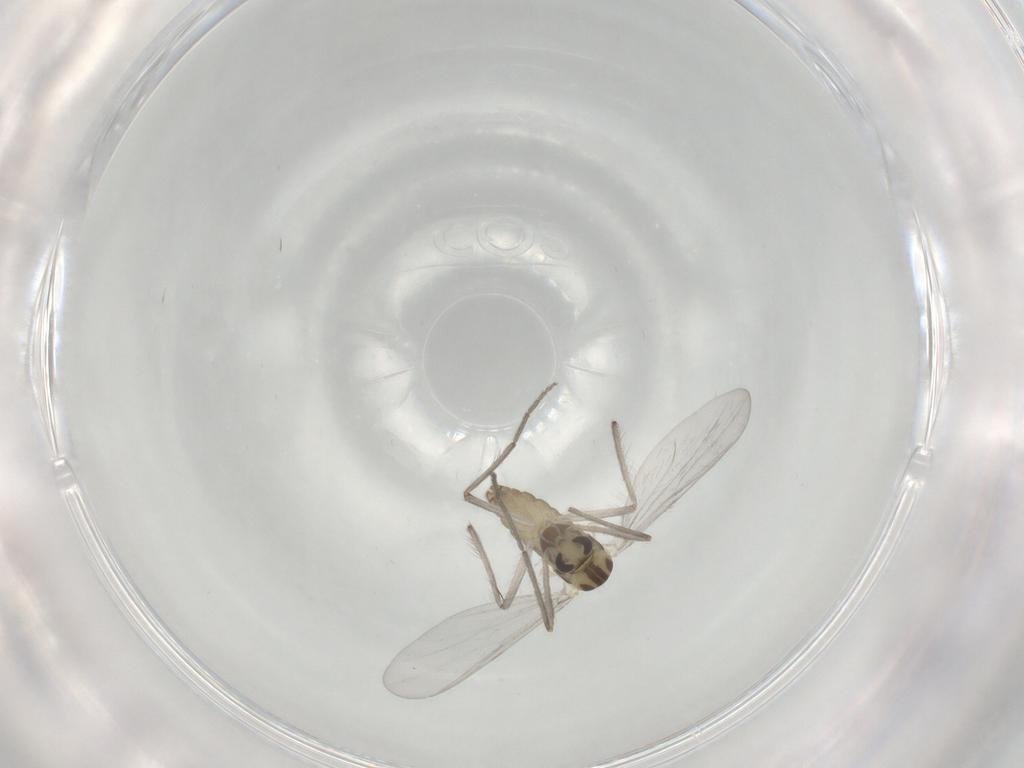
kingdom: Animalia
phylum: Arthropoda
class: Insecta
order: Diptera
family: Chironomidae
